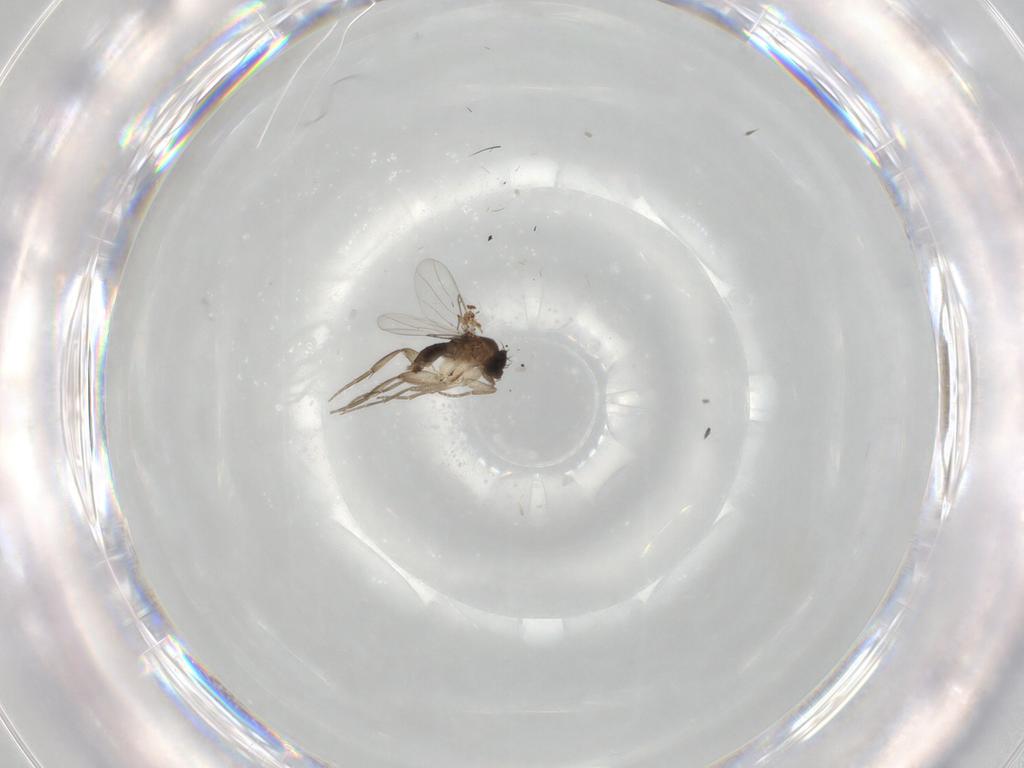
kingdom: Animalia
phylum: Arthropoda
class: Insecta
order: Diptera
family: Phoridae
